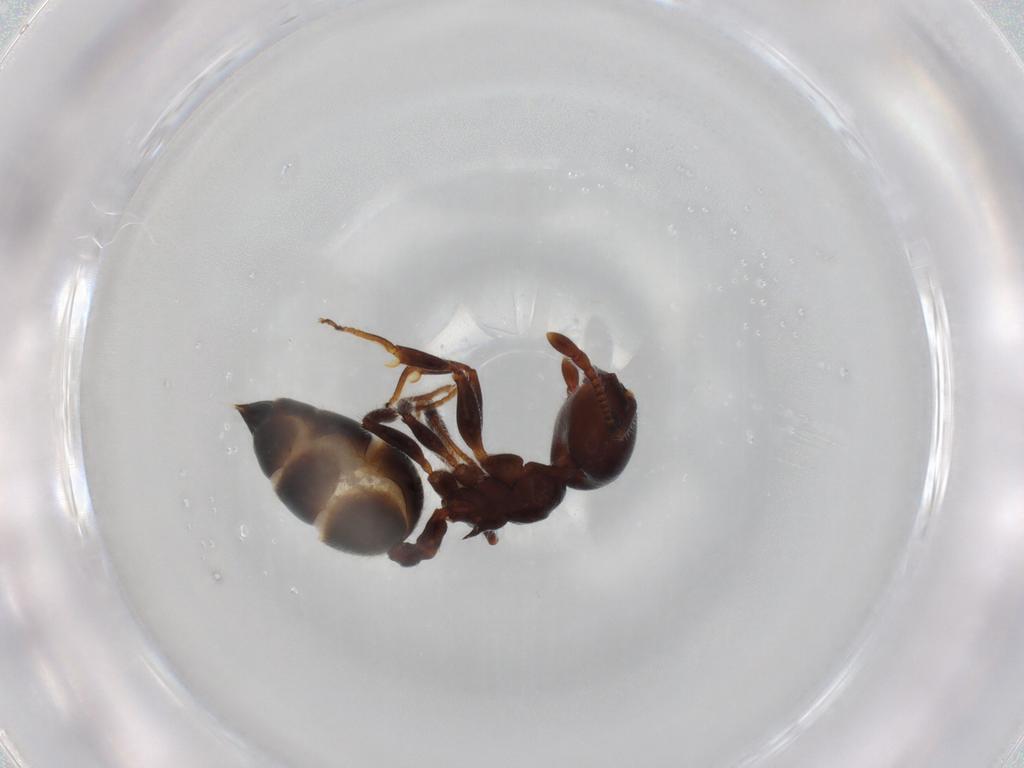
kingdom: Animalia
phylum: Arthropoda
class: Insecta
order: Hymenoptera
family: Formicidae
